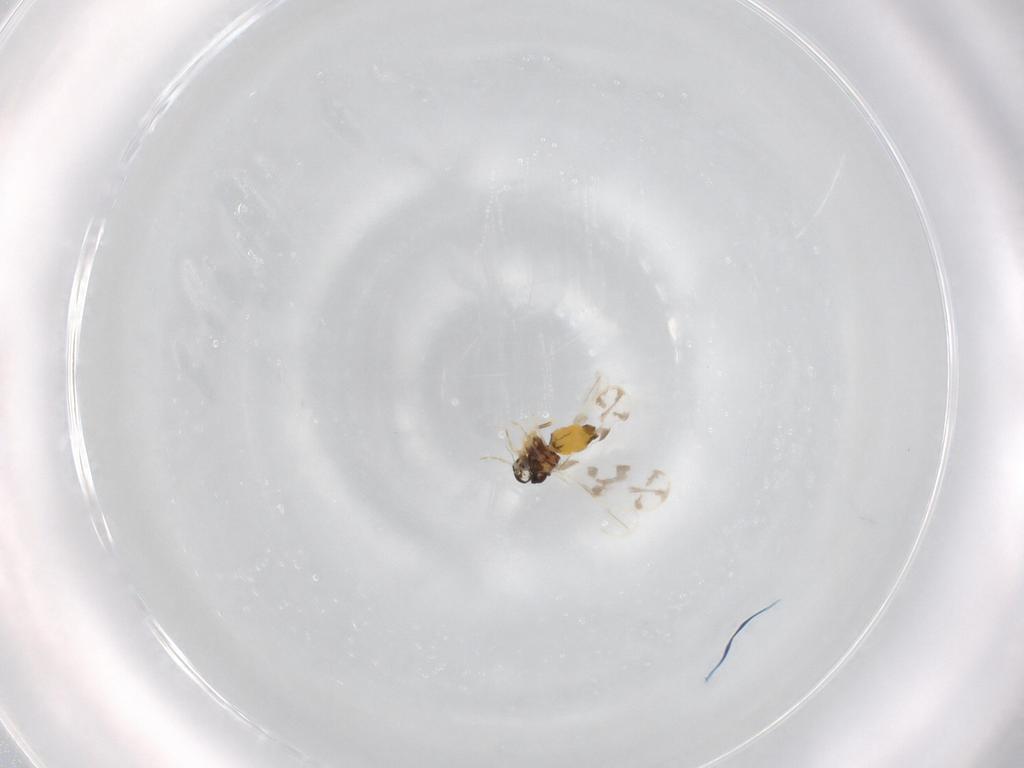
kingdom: Animalia
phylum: Arthropoda
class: Insecta
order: Hemiptera
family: Aleyrodidae
